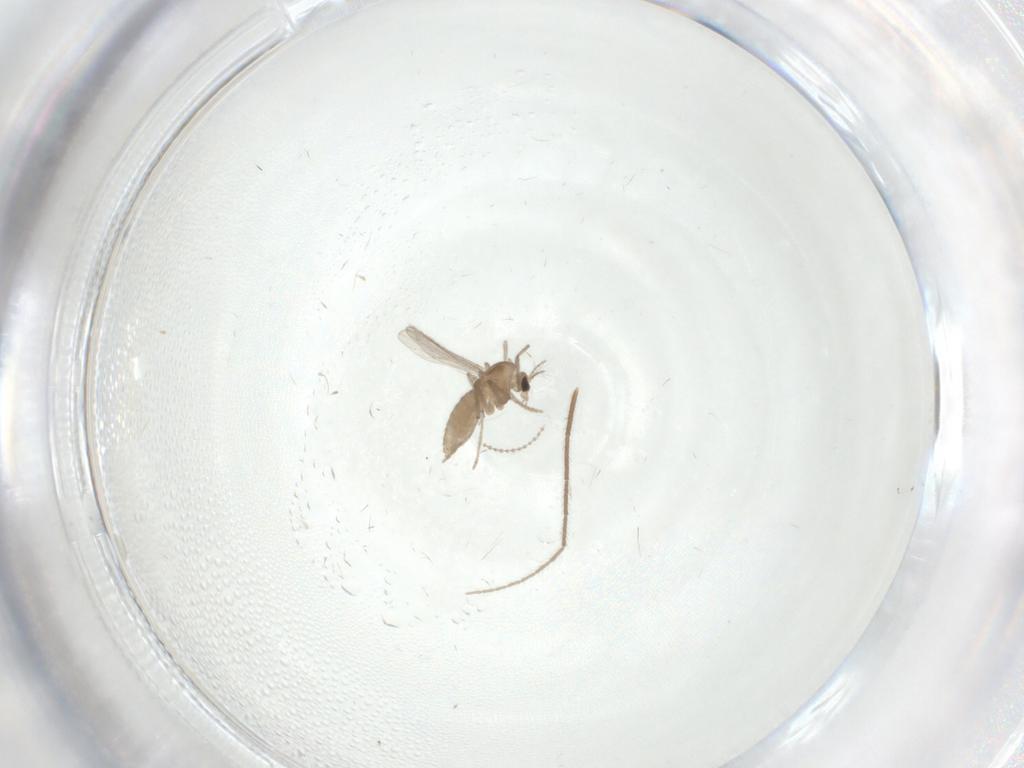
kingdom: Animalia
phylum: Arthropoda
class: Insecta
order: Diptera
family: Chironomidae
